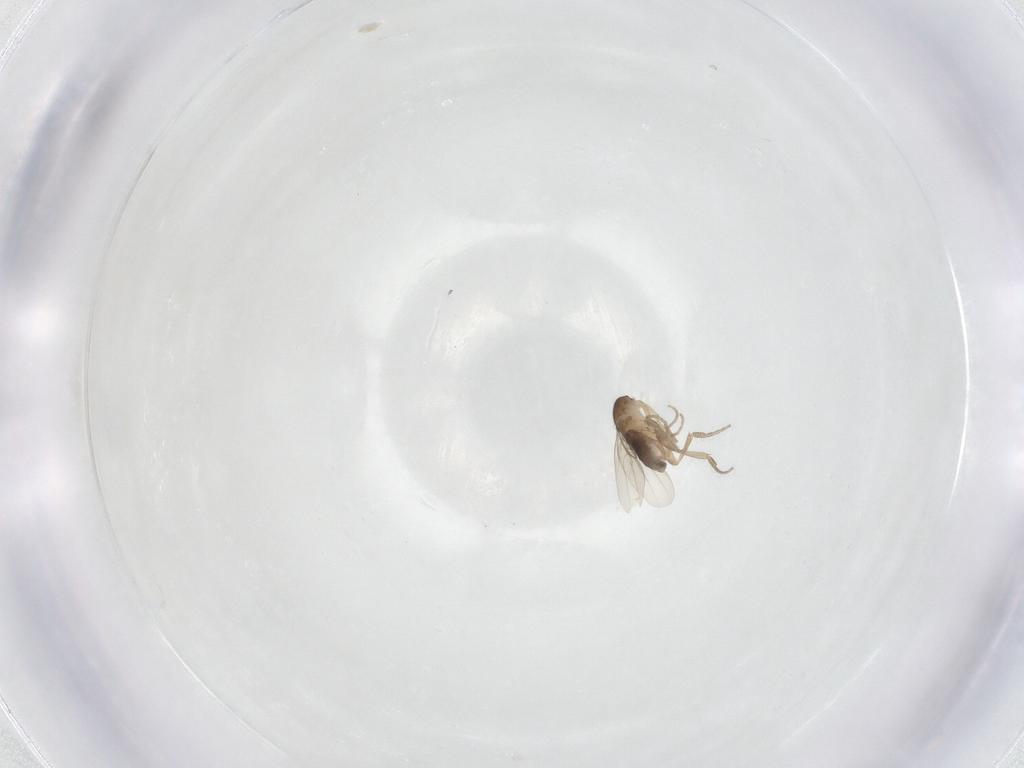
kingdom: Animalia
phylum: Arthropoda
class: Insecta
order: Diptera
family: Phoridae
